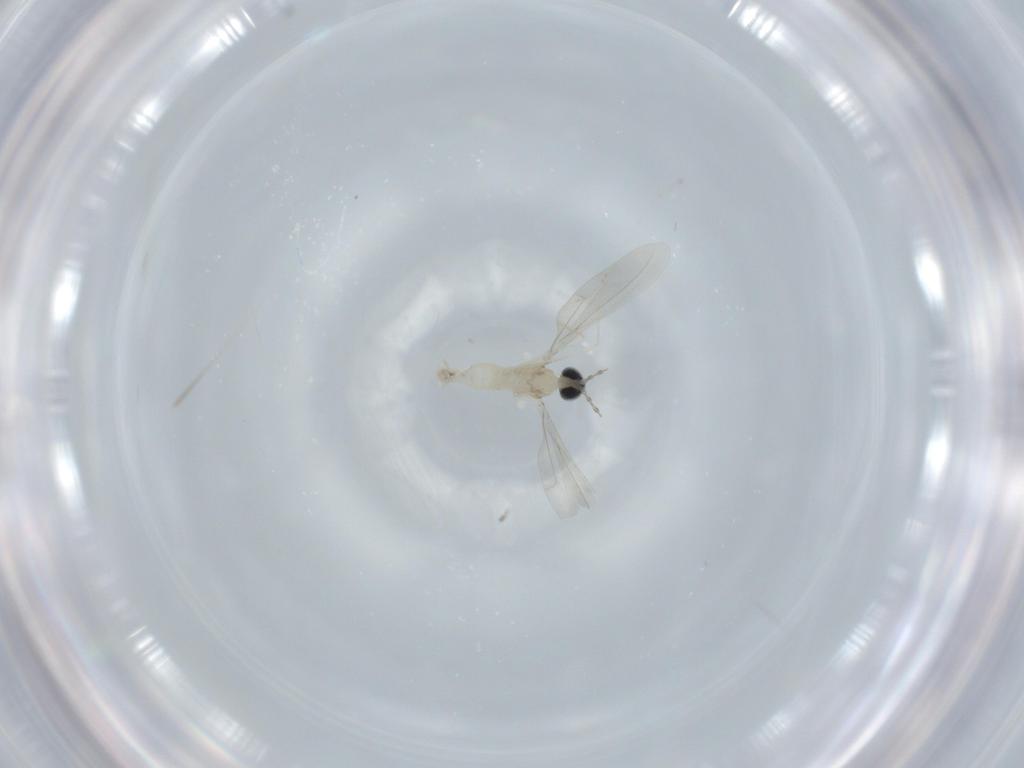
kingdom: Animalia
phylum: Arthropoda
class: Insecta
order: Diptera
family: Cecidomyiidae
